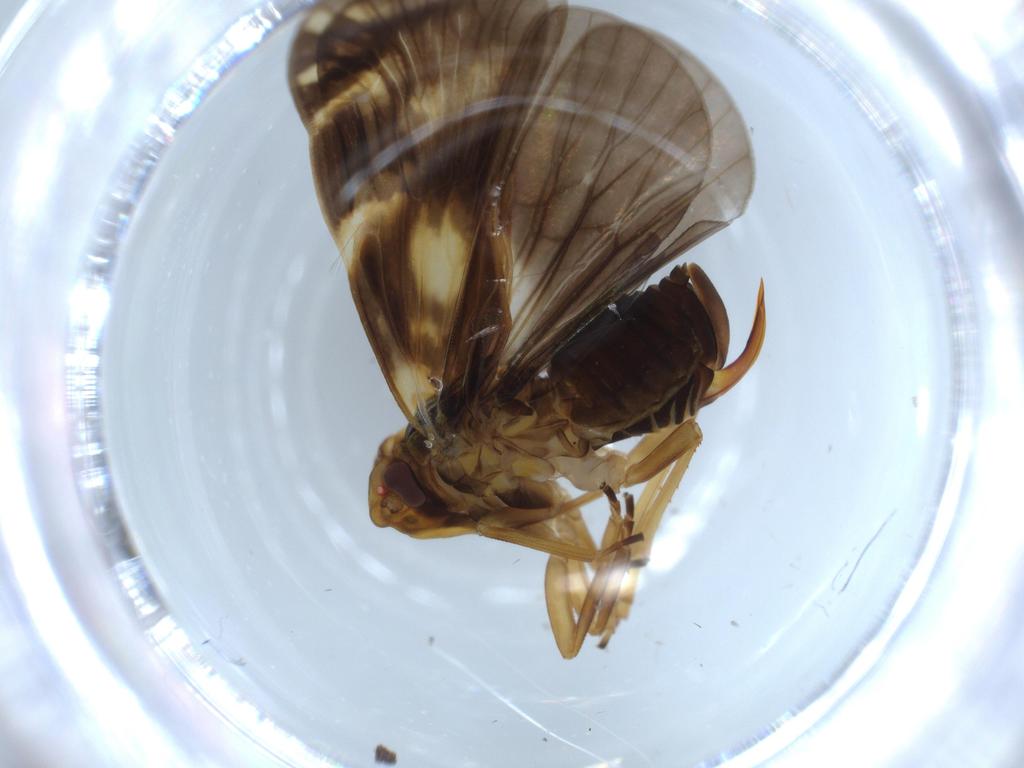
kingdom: Animalia
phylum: Arthropoda
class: Insecta
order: Hemiptera
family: Cixiidae
